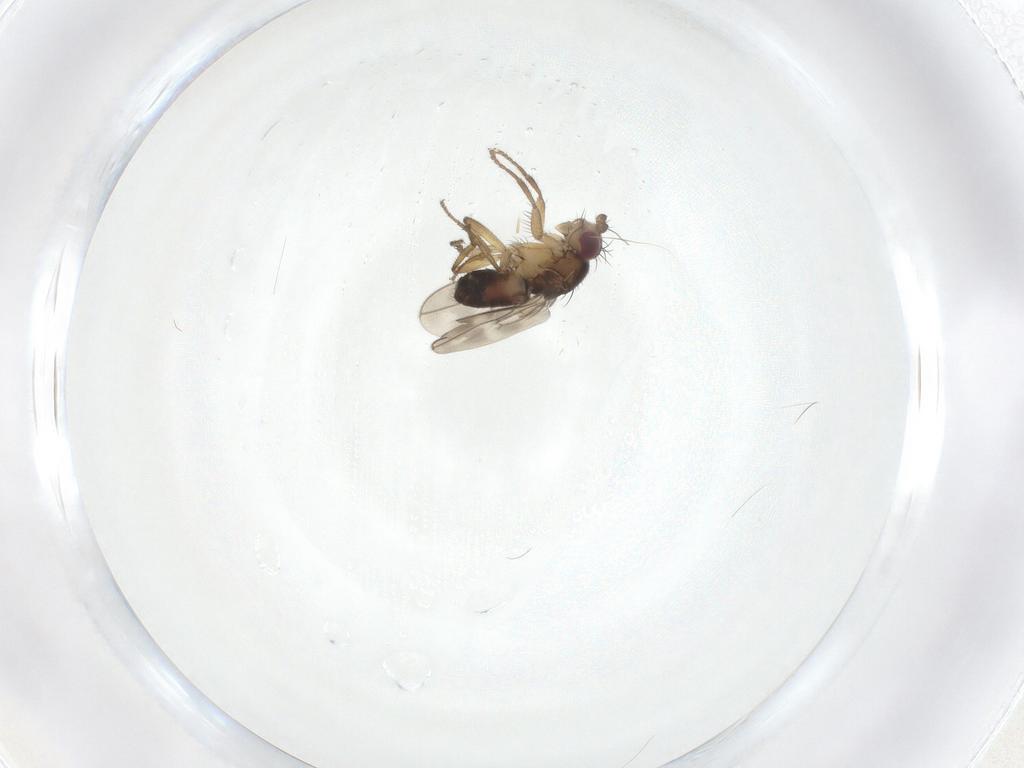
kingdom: Animalia
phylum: Arthropoda
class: Insecta
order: Diptera
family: Sphaeroceridae
